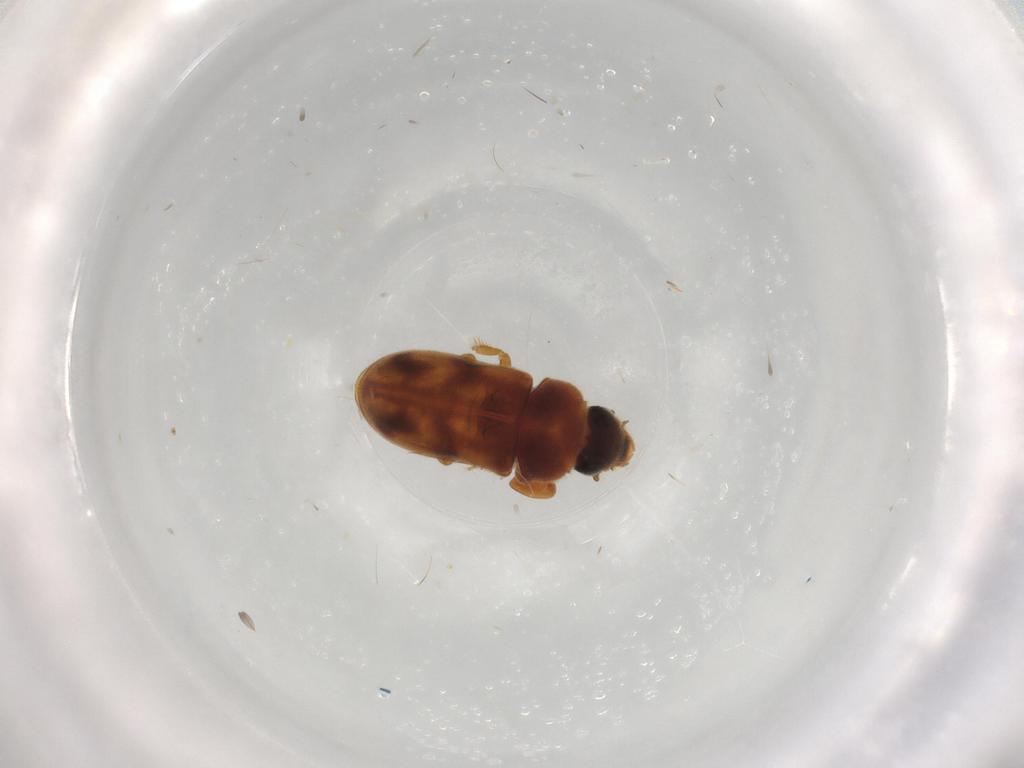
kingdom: Animalia
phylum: Arthropoda
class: Insecta
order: Coleoptera
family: Heteroceridae
